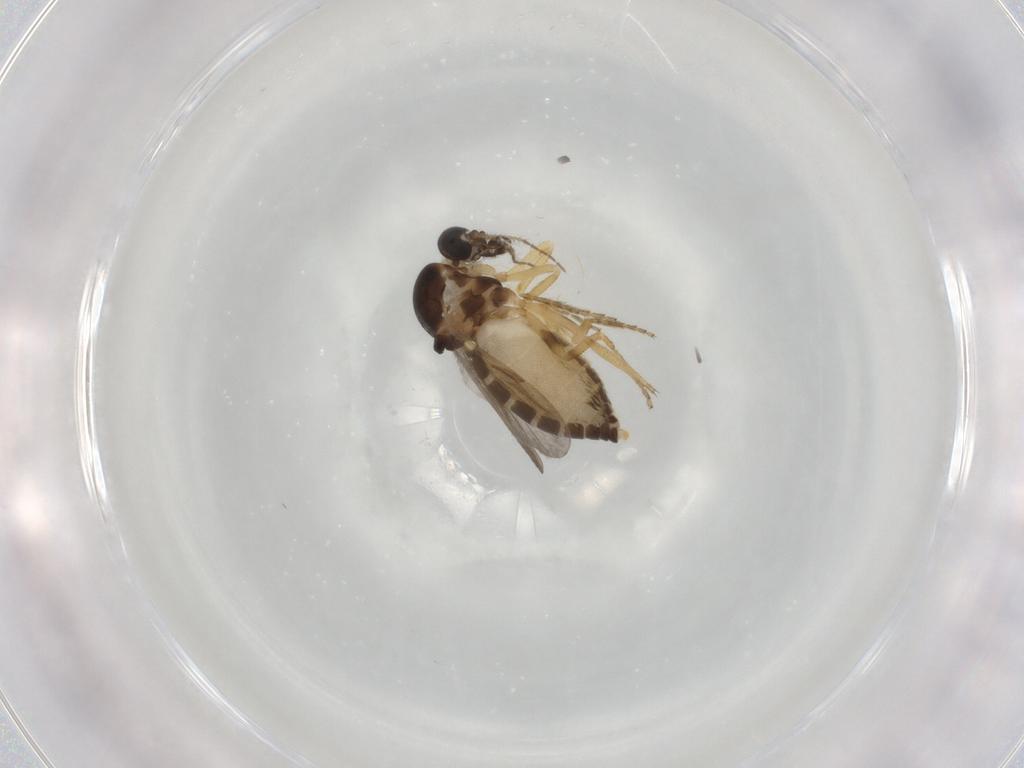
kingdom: Animalia
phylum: Arthropoda
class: Insecta
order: Diptera
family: Ceratopogonidae
